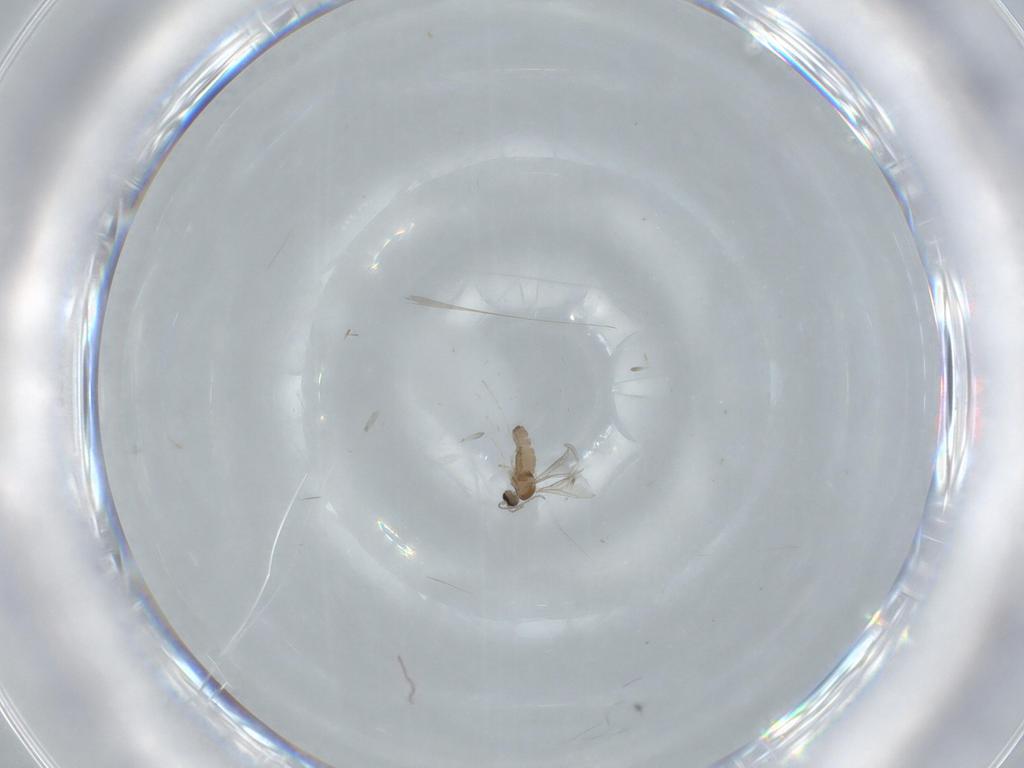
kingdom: Animalia
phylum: Arthropoda
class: Insecta
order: Diptera
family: Cecidomyiidae
